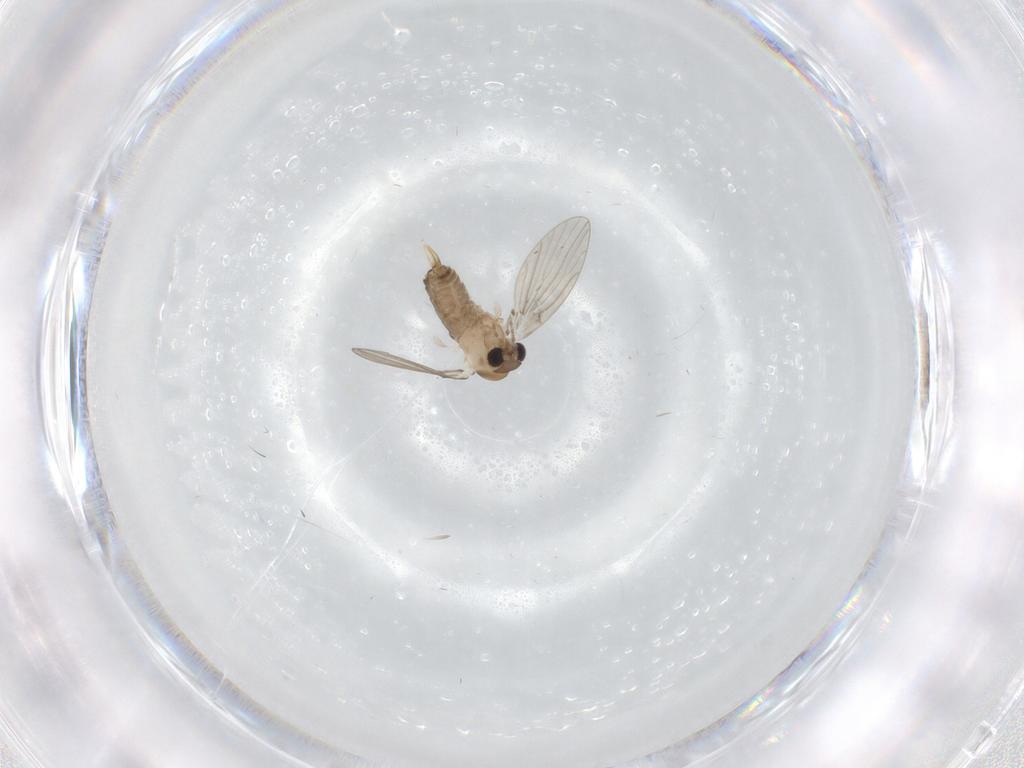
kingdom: Animalia
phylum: Arthropoda
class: Insecta
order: Diptera
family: Psychodidae
